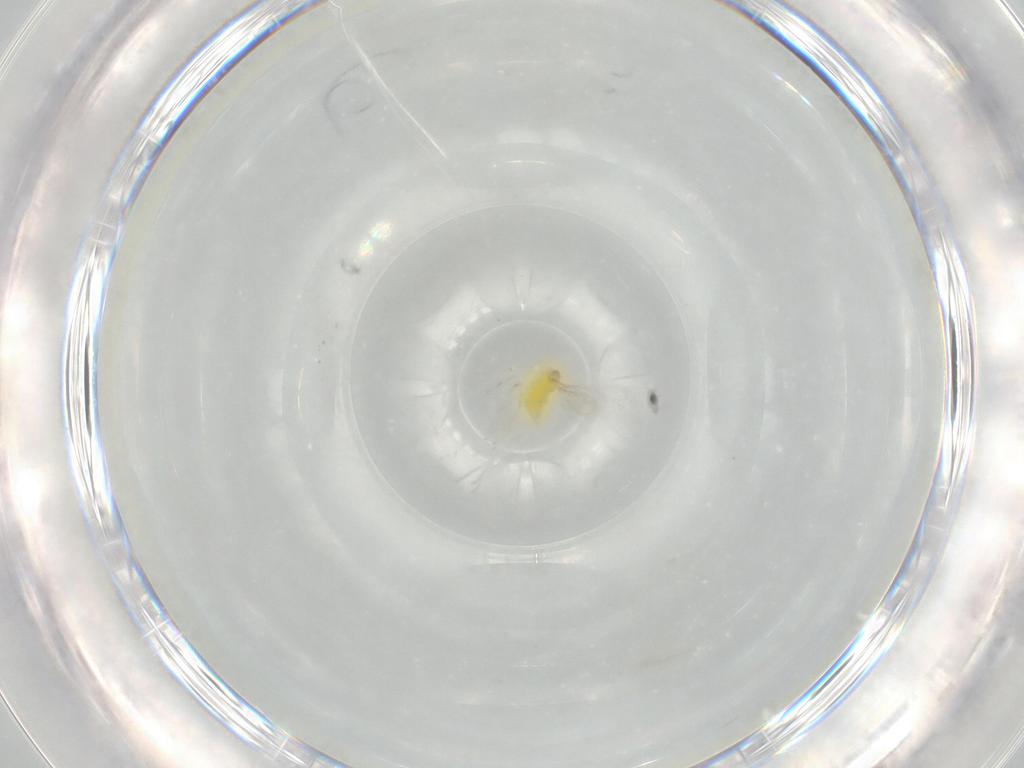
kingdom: Animalia
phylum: Arthropoda
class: Insecta
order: Hymenoptera
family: Aphelinidae
